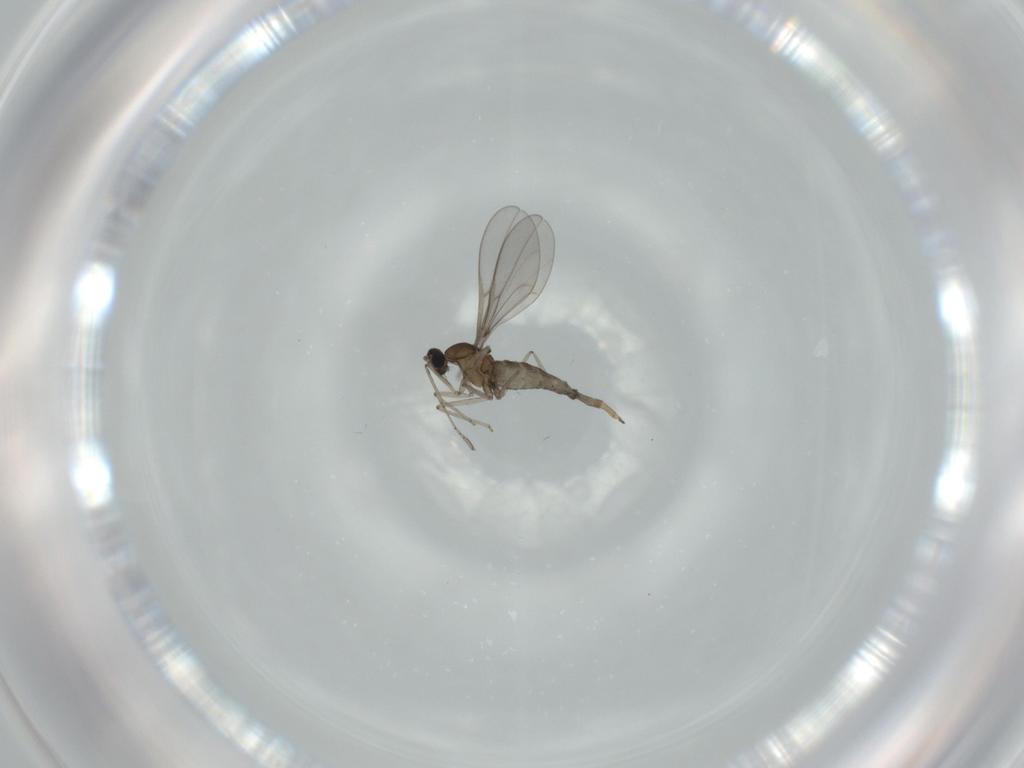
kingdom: Animalia
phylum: Arthropoda
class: Insecta
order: Diptera
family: Cecidomyiidae
